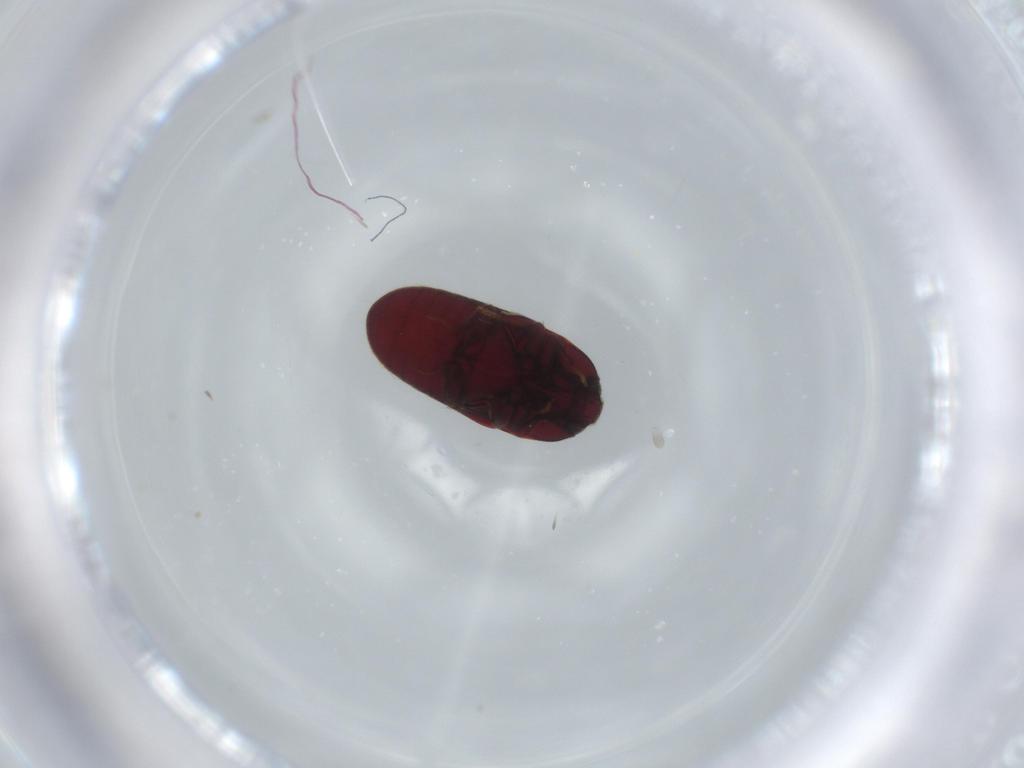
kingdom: Animalia
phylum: Arthropoda
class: Insecta
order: Coleoptera
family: Throscidae
